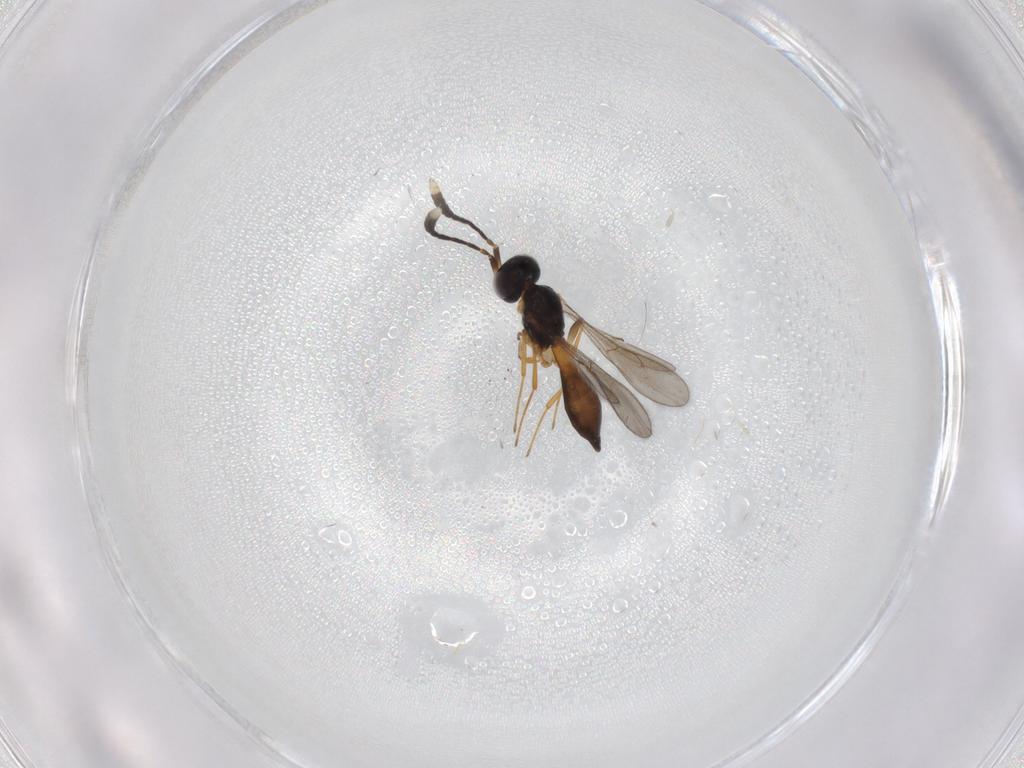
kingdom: Animalia
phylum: Arthropoda
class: Insecta
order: Hymenoptera
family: Scelionidae
